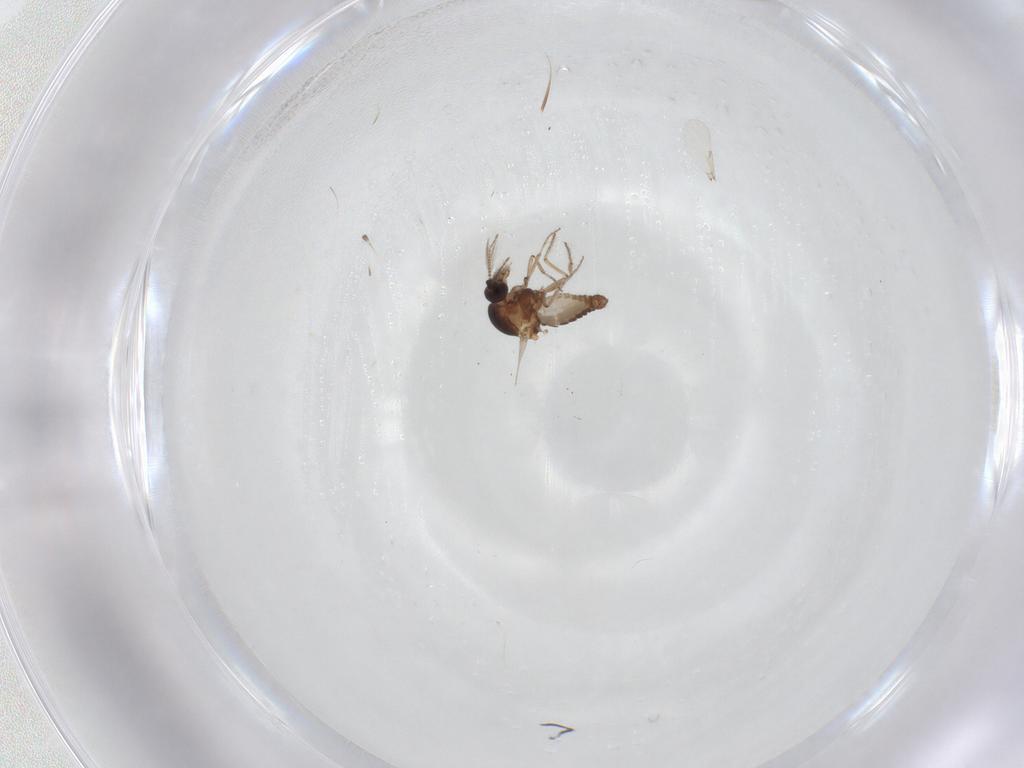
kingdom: Animalia
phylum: Arthropoda
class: Insecta
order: Diptera
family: Ceratopogonidae
